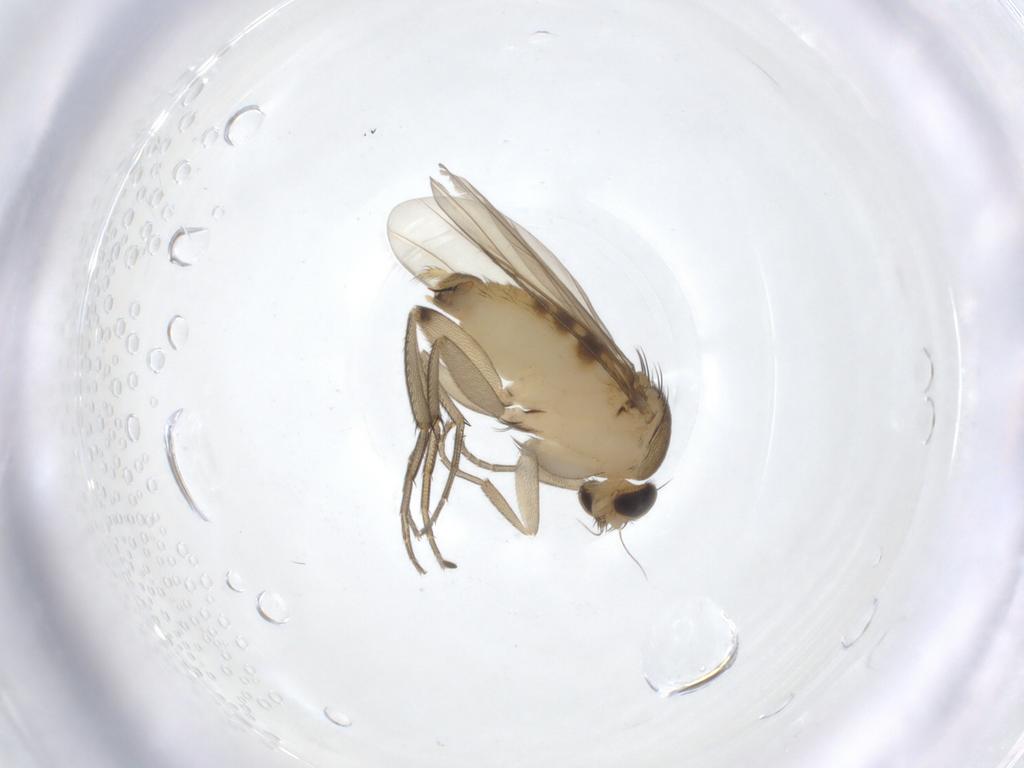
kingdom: Animalia
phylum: Arthropoda
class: Insecta
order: Diptera
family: Phoridae
